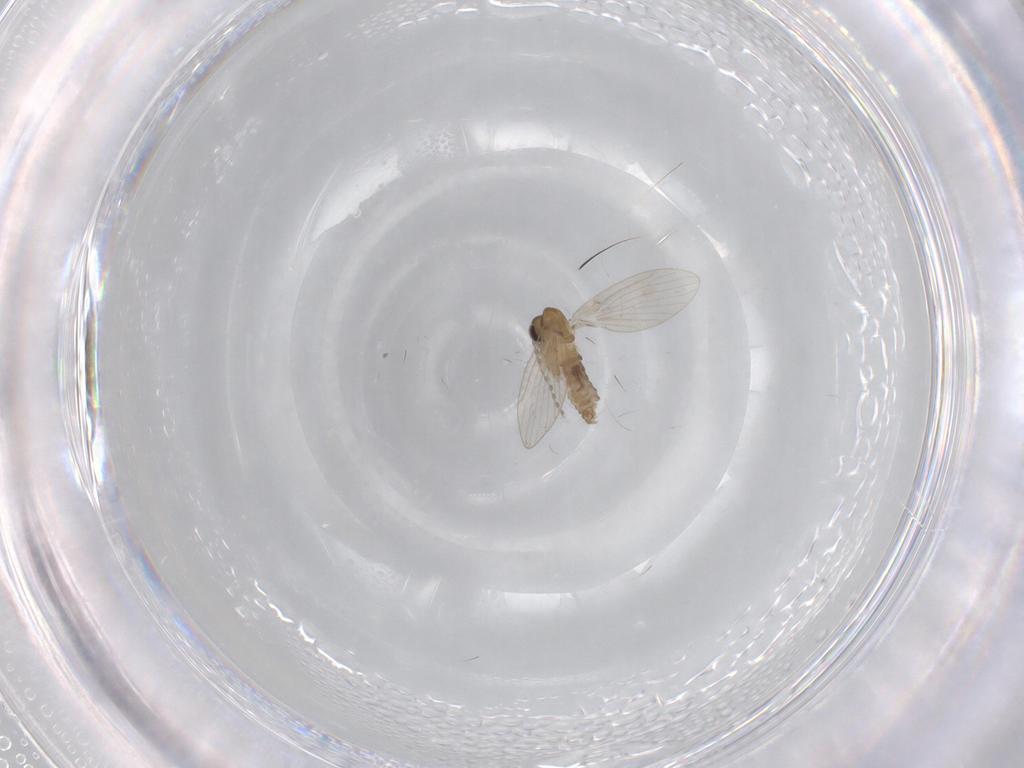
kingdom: Animalia
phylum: Arthropoda
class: Insecta
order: Diptera
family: Psychodidae
